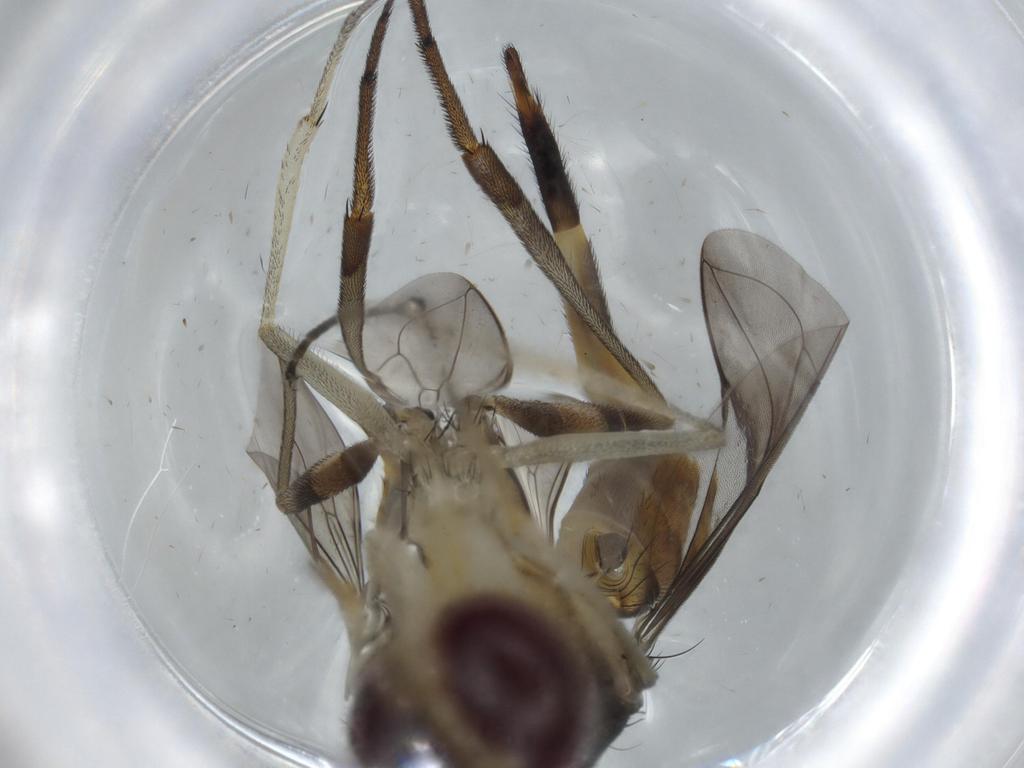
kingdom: Animalia
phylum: Arthropoda
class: Insecta
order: Diptera
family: Conopidae
